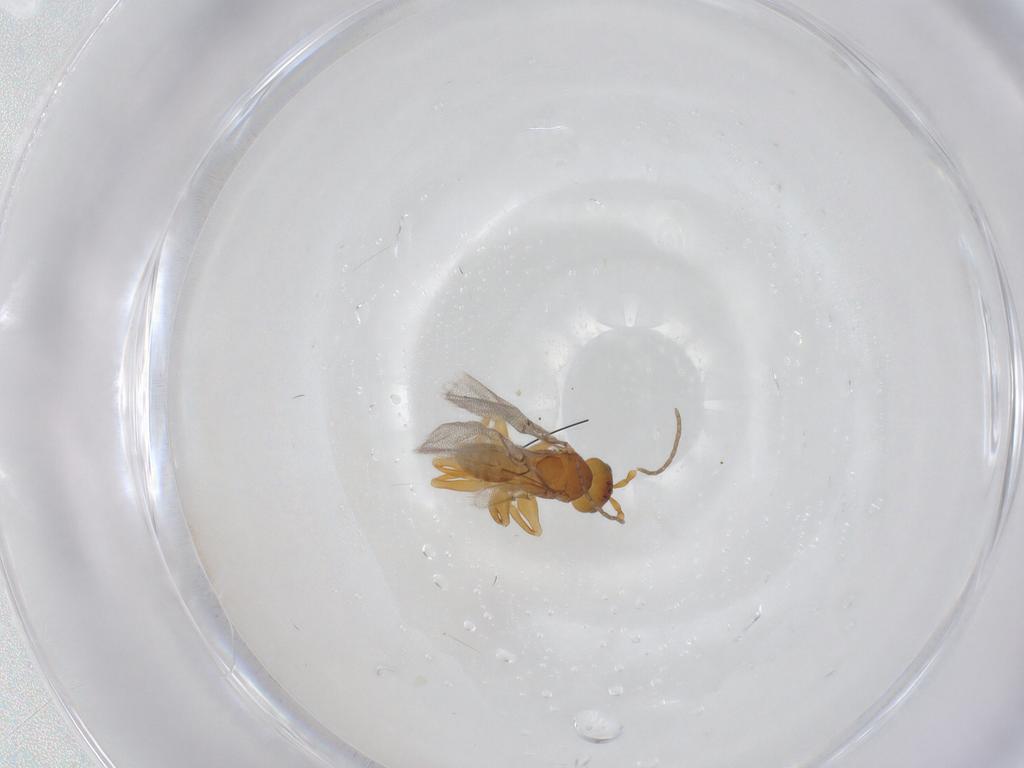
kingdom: Animalia
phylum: Arthropoda
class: Insecta
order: Hymenoptera
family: Cynipidae
